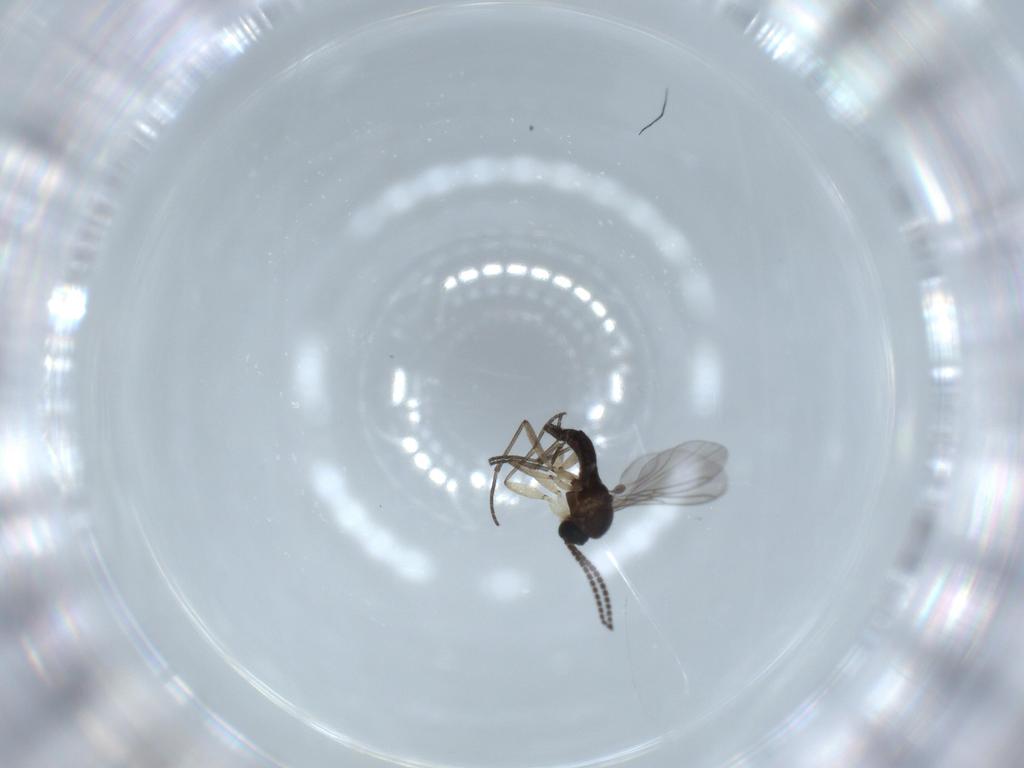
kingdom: Animalia
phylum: Arthropoda
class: Insecta
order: Diptera
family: Sciaridae
